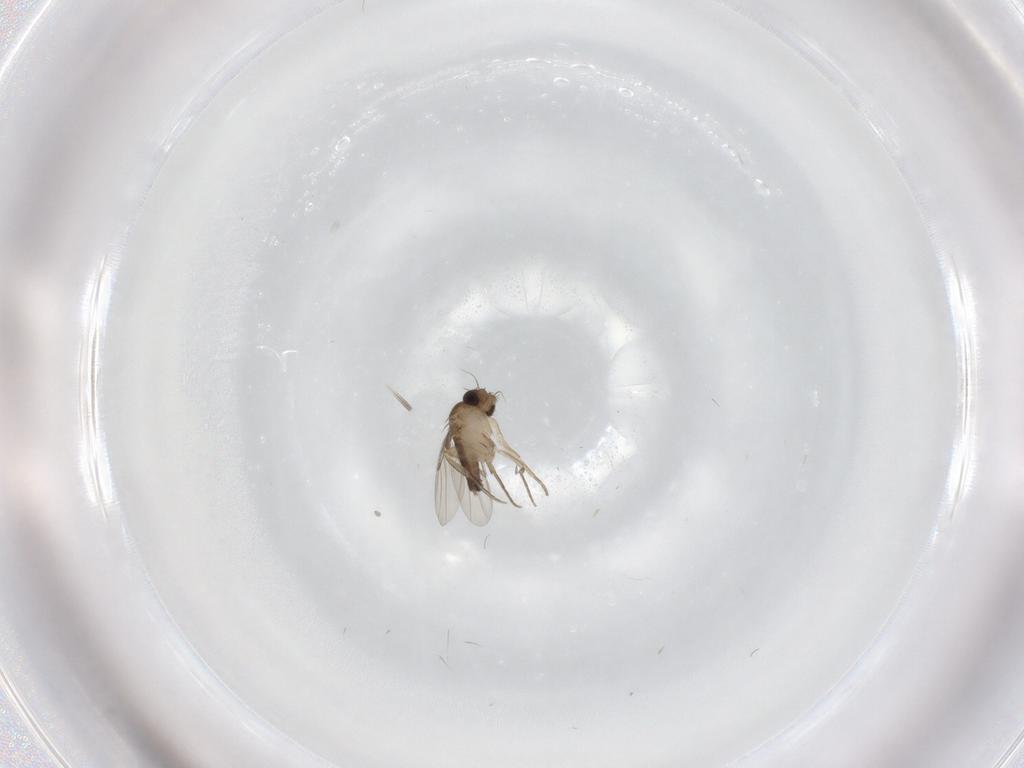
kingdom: Animalia
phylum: Arthropoda
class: Insecta
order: Diptera
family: Phoridae
